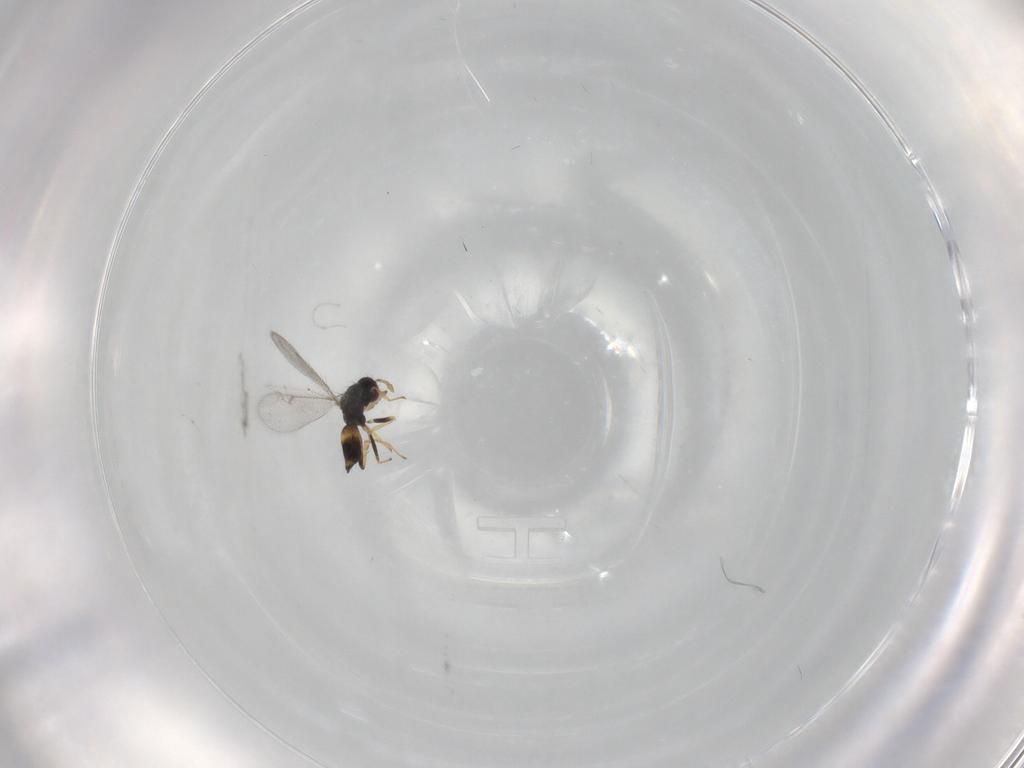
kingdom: Animalia
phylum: Arthropoda
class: Insecta
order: Hymenoptera
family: Eulophidae
